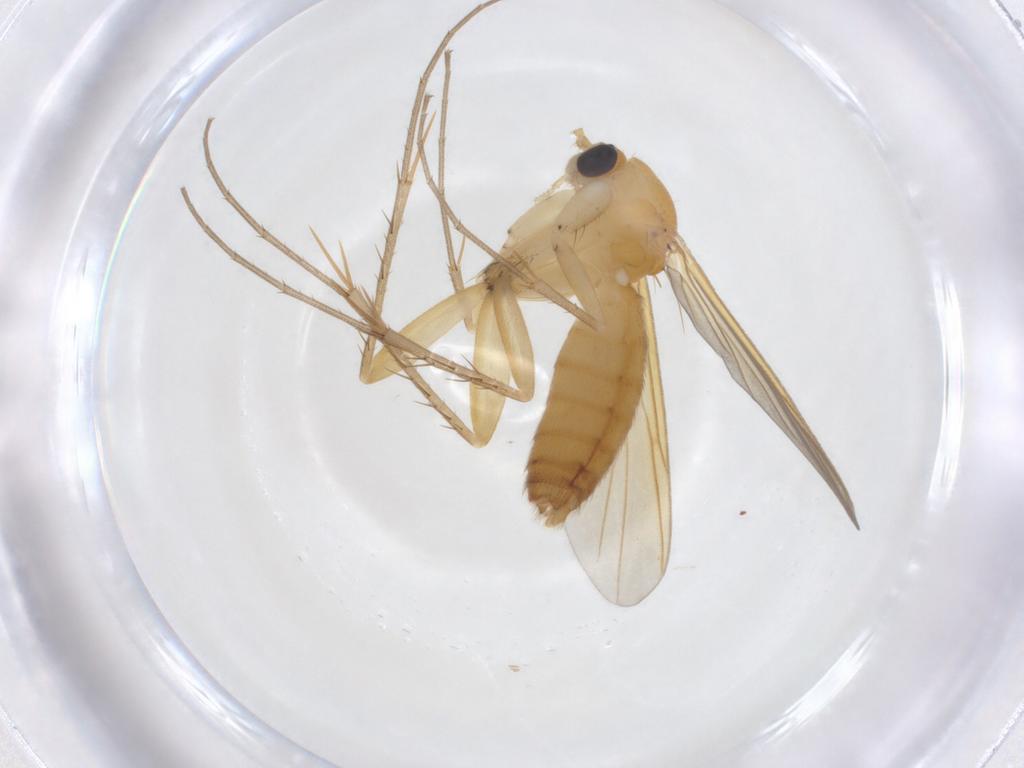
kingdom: Animalia
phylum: Arthropoda
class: Insecta
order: Diptera
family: Mycetophilidae
